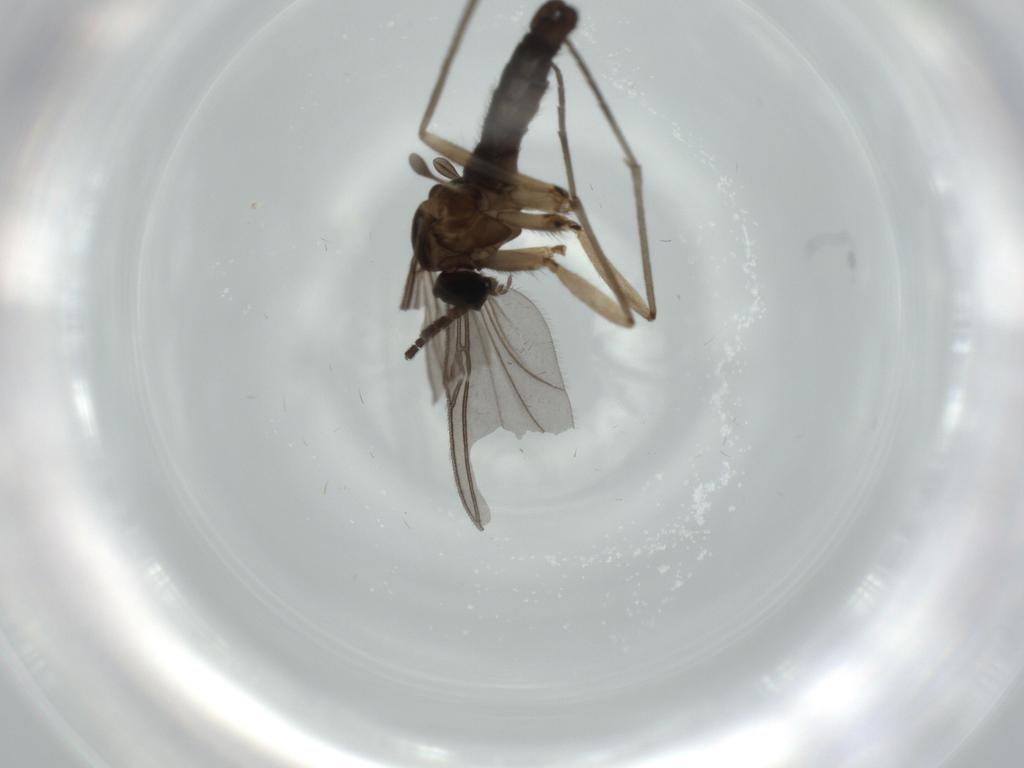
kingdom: Animalia
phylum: Arthropoda
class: Insecta
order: Diptera
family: Sciaridae
